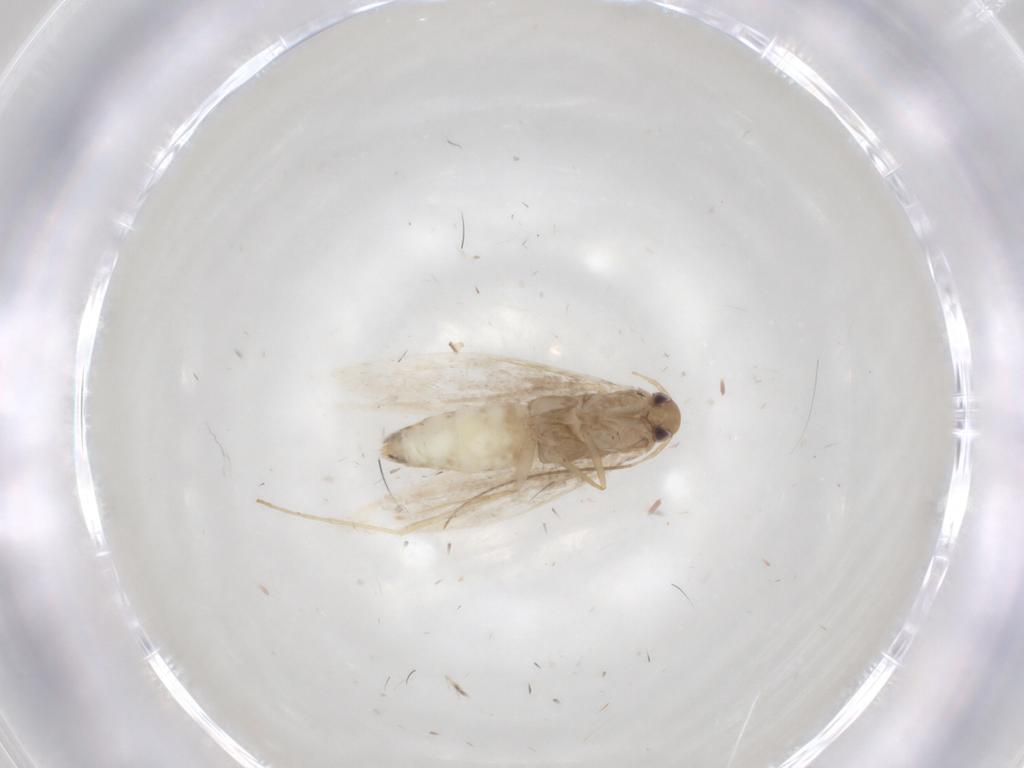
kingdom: Animalia
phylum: Arthropoda
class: Insecta
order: Lepidoptera
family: Gracillariidae
